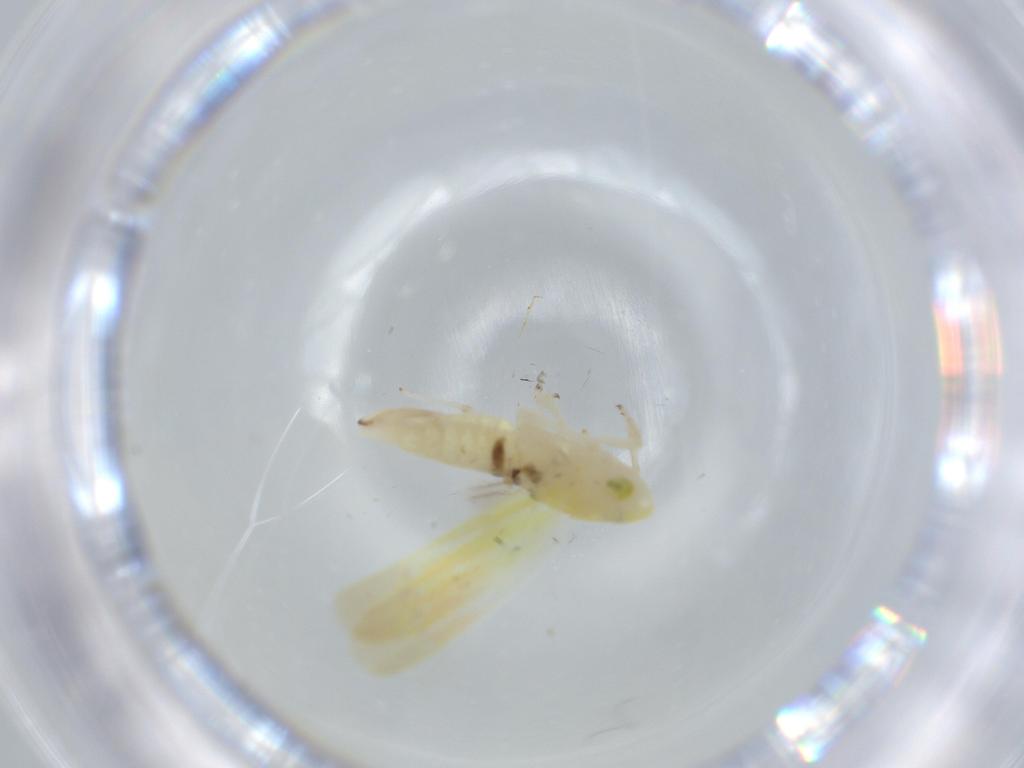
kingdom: Animalia
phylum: Arthropoda
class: Insecta
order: Hemiptera
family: Cicadellidae
